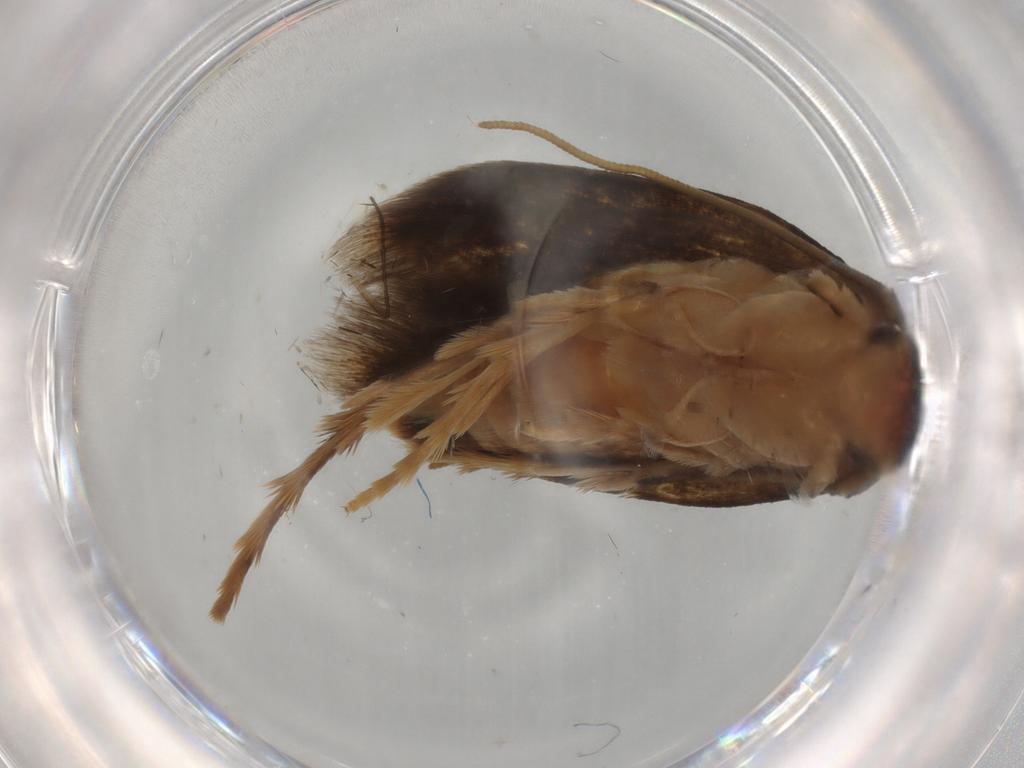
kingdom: Animalia
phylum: Arthropoda
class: Insecta
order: Lepidoptera
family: Tineidae
